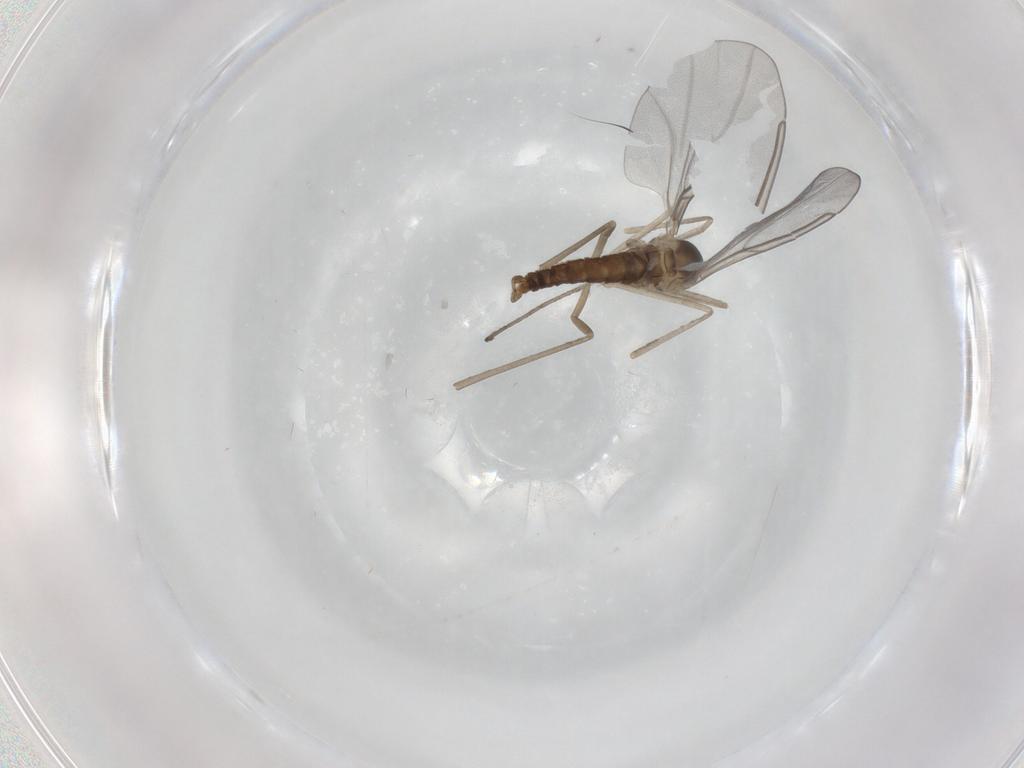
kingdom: Animalia
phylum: Arthropoda
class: Insecta
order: Diptera
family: Cecidomyiidae
